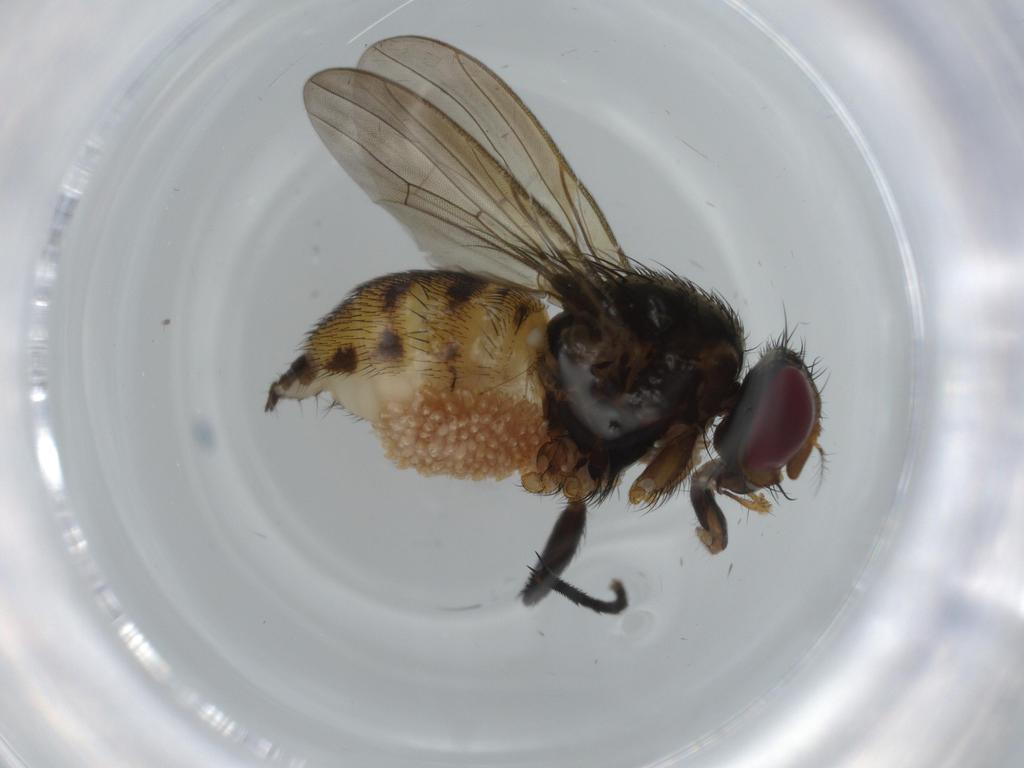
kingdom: Animalia
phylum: Arthropoda
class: Insecta
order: Diptera
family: Anthomyiidae
